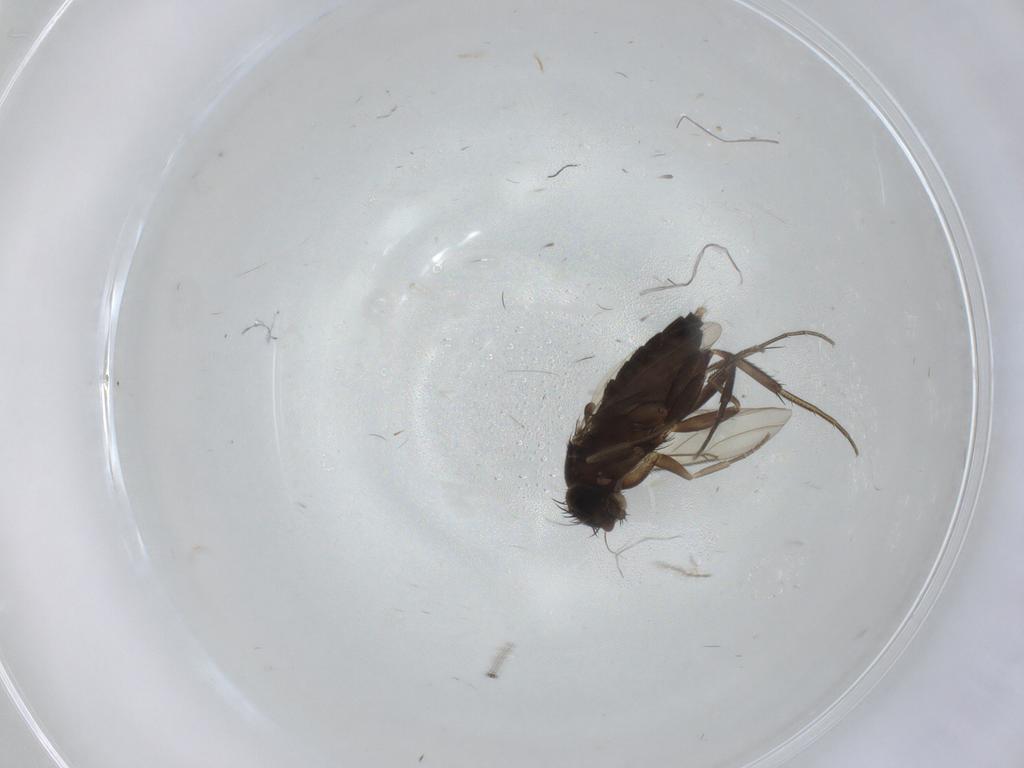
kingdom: Animalia
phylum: Arthropoda
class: Insecta
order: Diptera
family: Phoridae
